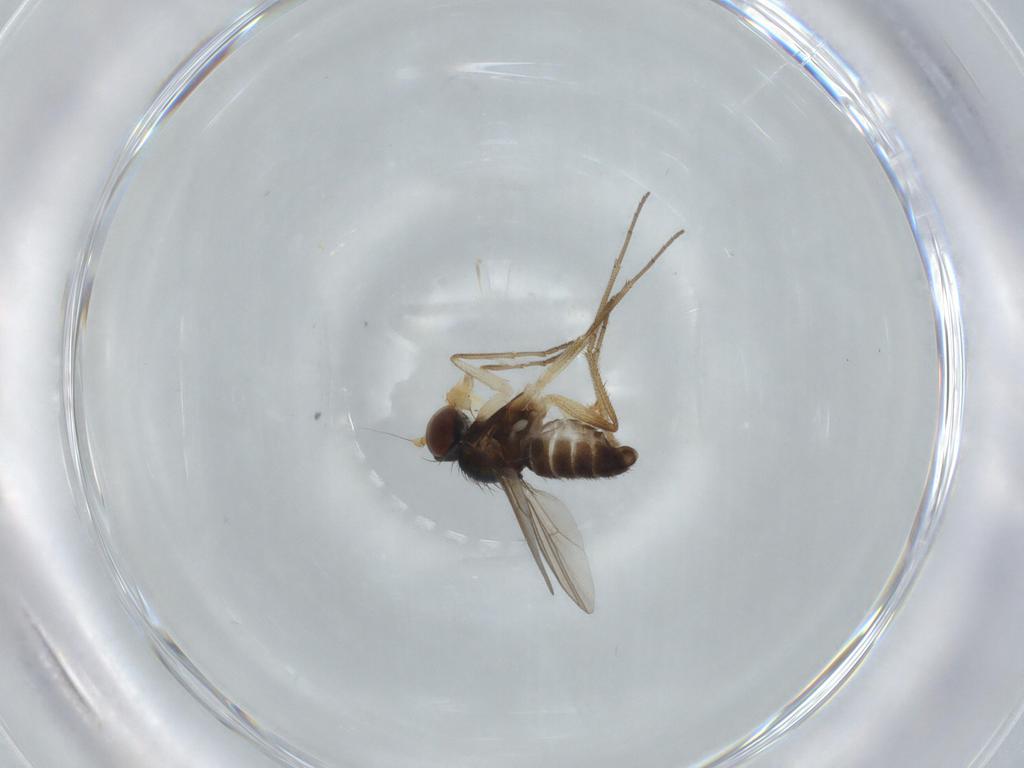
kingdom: Animalia
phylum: Arthropoda
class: Insecta
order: Diptera
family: Dolichopodidae
